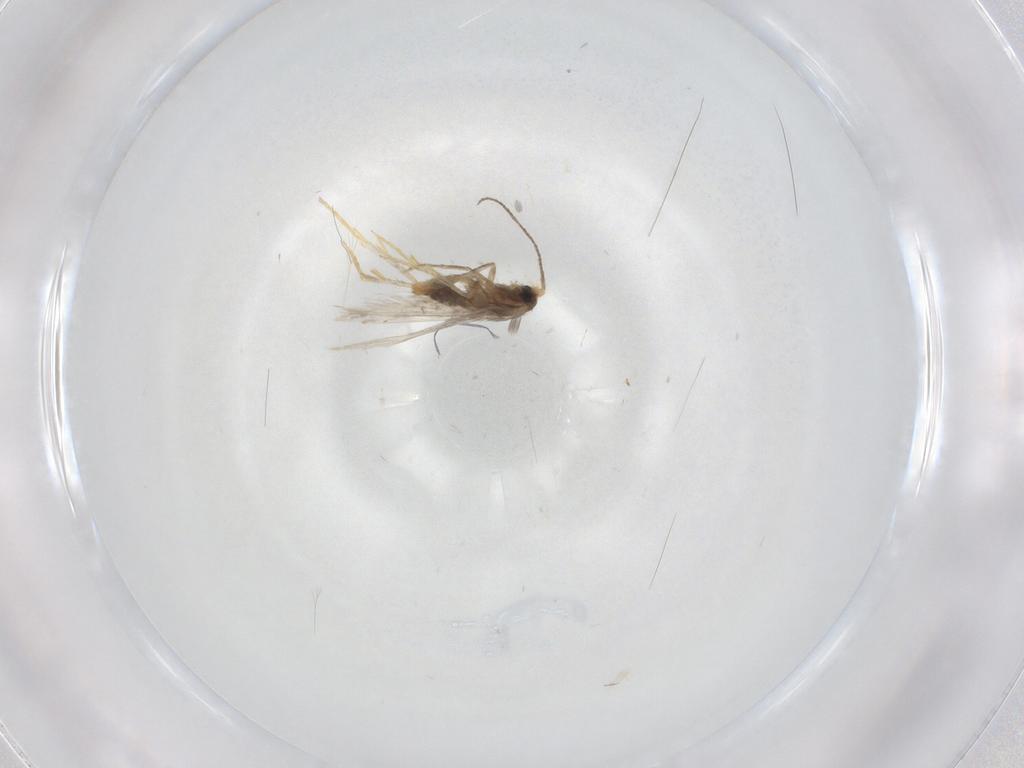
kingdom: Animalia
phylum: Arthropoda
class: Insecta
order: Lepidoptera
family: Nepticulidae
